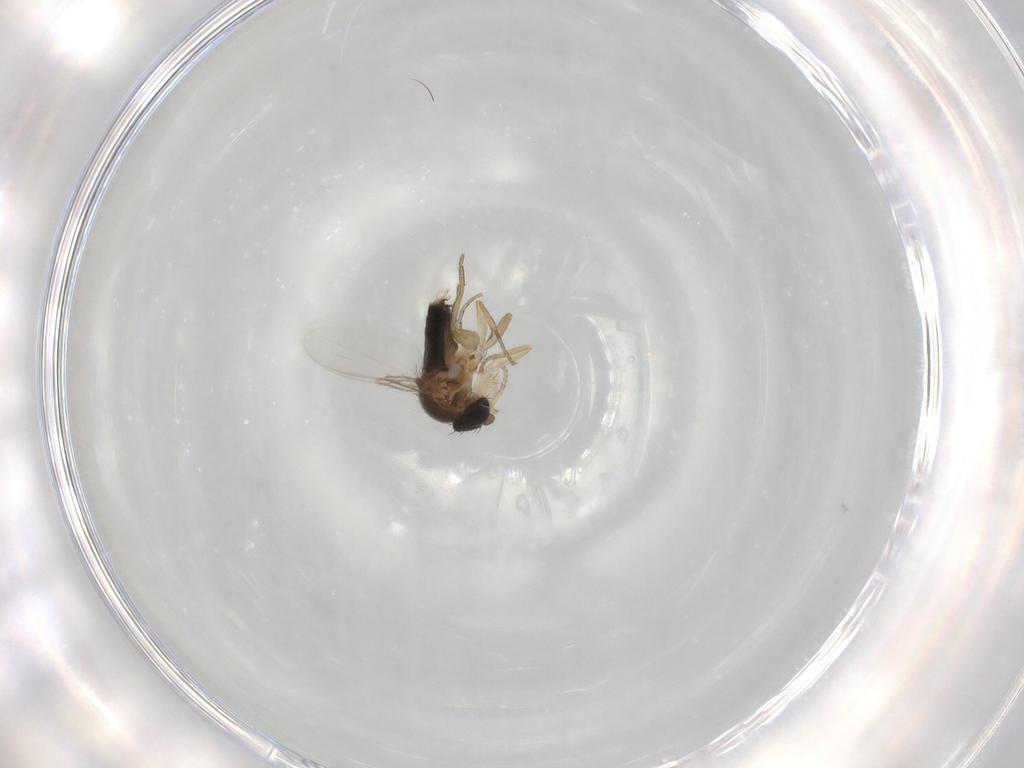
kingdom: Animalia
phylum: Arthropoda
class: Insecta
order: Diptera
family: Phoridae
